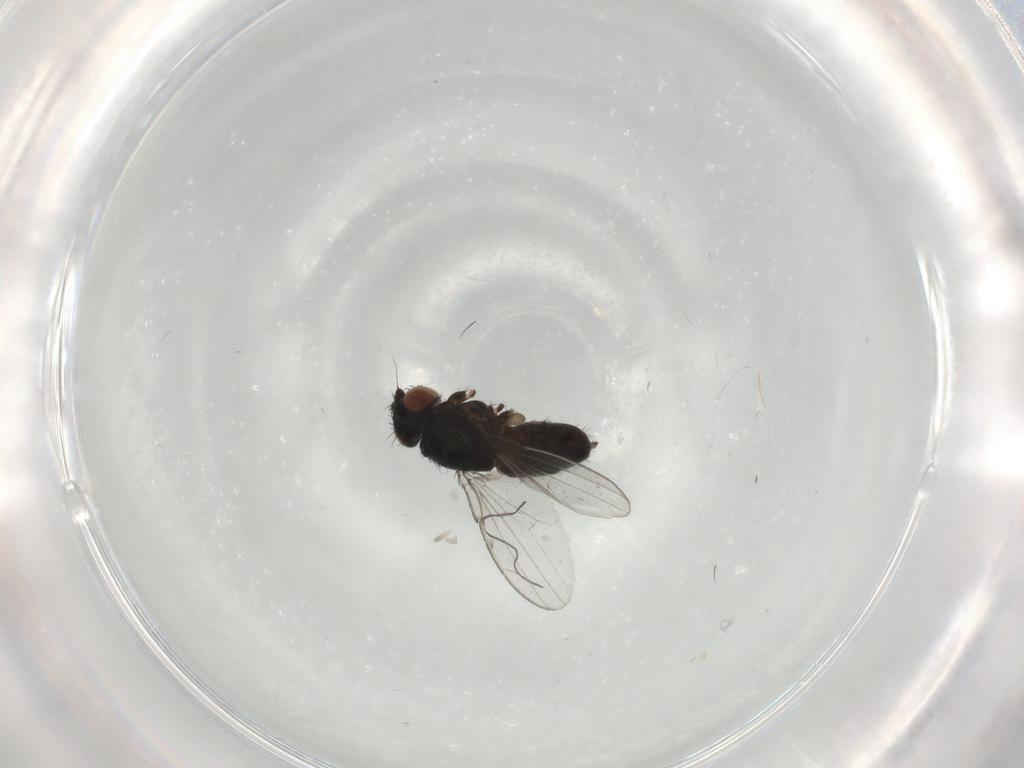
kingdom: Animalia
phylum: Arthropoda
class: Insecta
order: Diptera
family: Milichiidae
